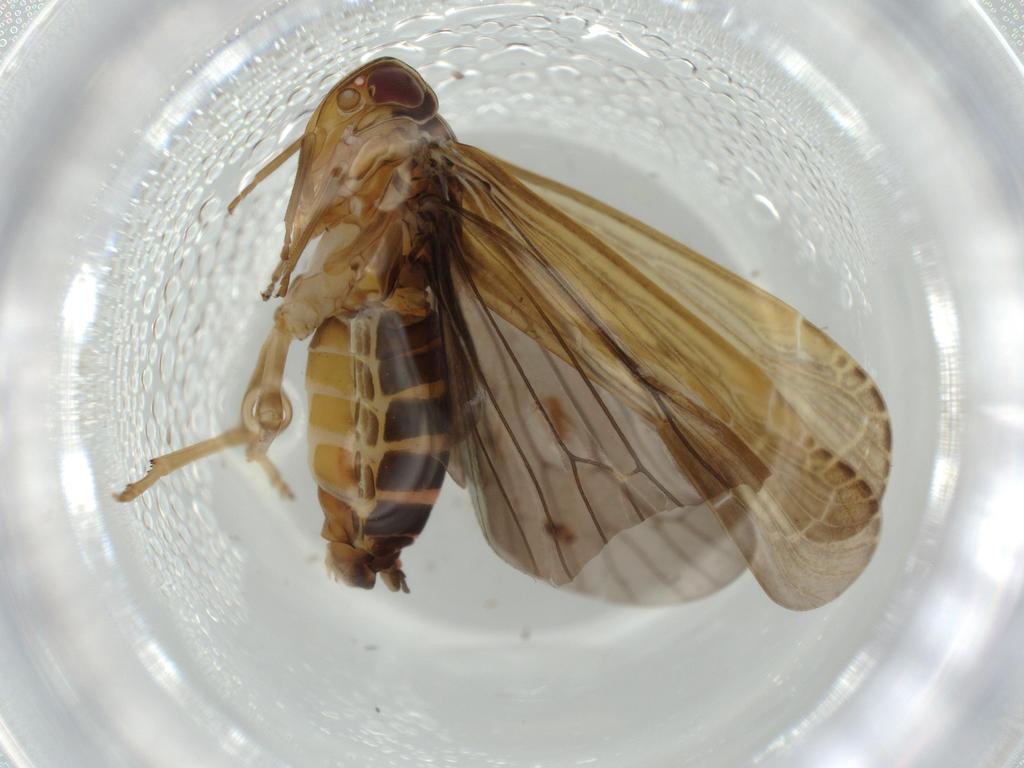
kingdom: Animalia
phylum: Arthropoda
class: Insecta
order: Hemiptera
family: Achilidae
